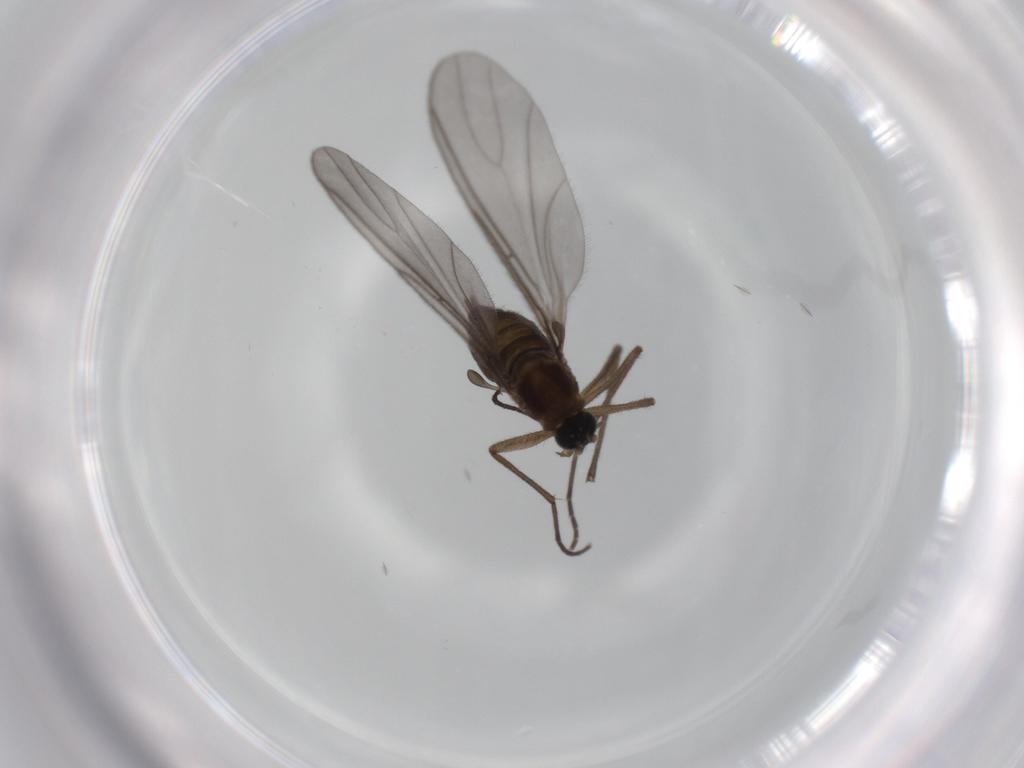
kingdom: Animalia
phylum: Arthropoda
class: Insecta
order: Diptera
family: Sciaridae
